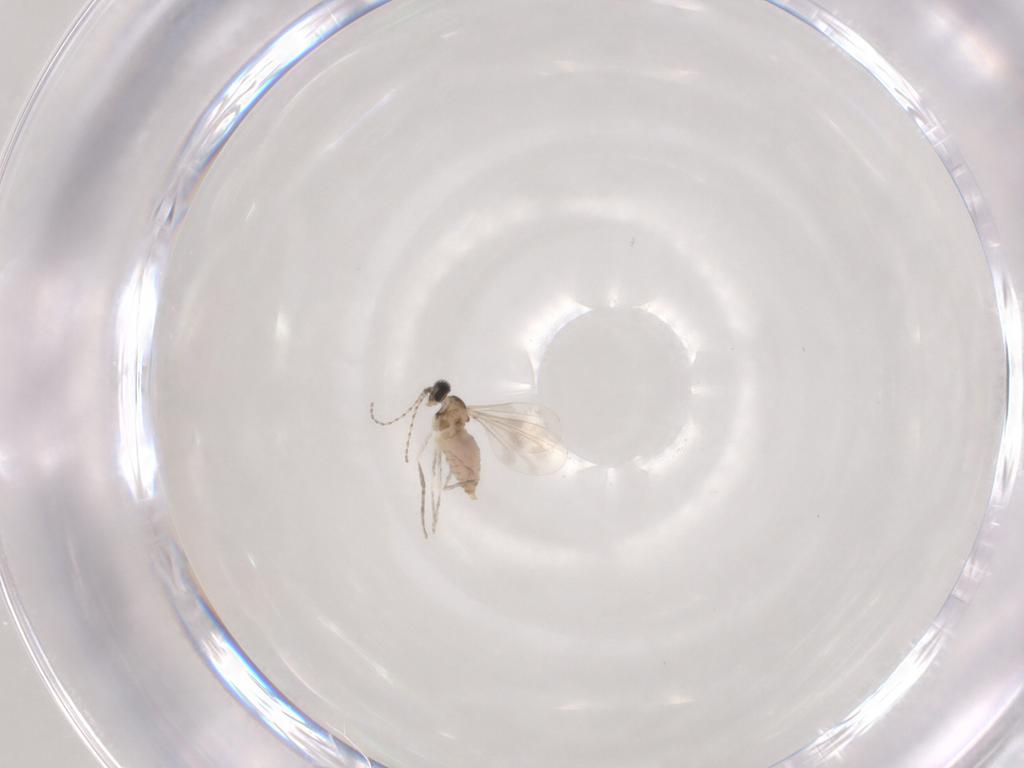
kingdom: Animalia
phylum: Arthropoda
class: Insecta
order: Diptera
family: Cecidomyiidae
